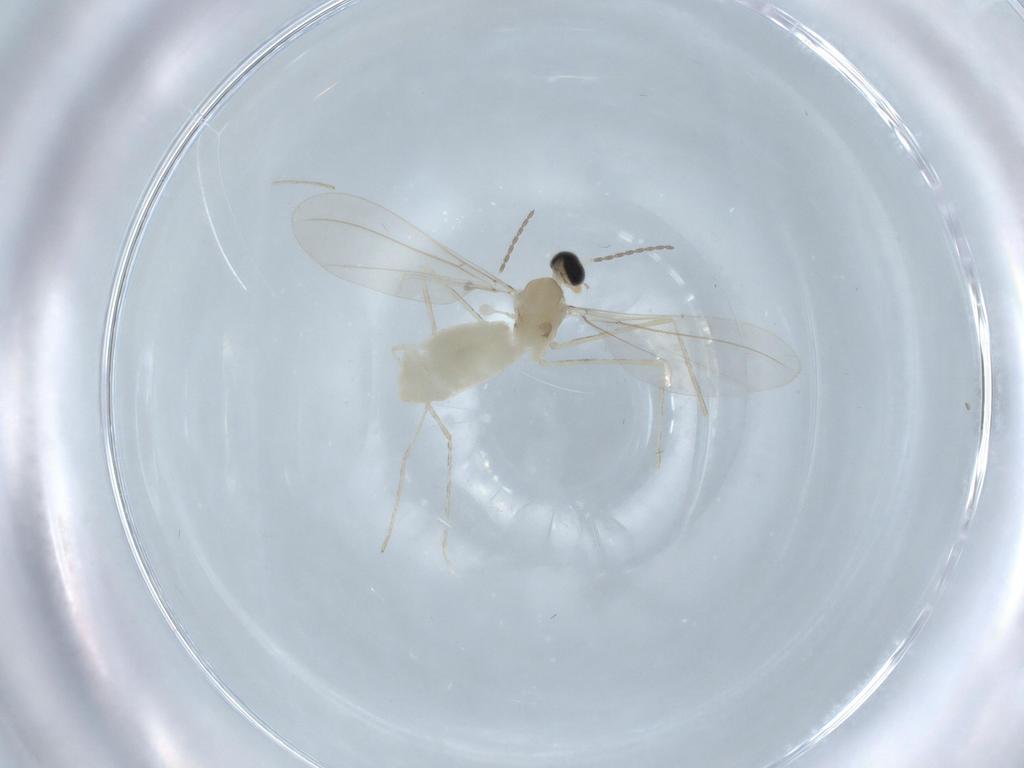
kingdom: Animalia
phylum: Arthropoda
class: Insecta
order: Diptera
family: Cecidomyiidae
